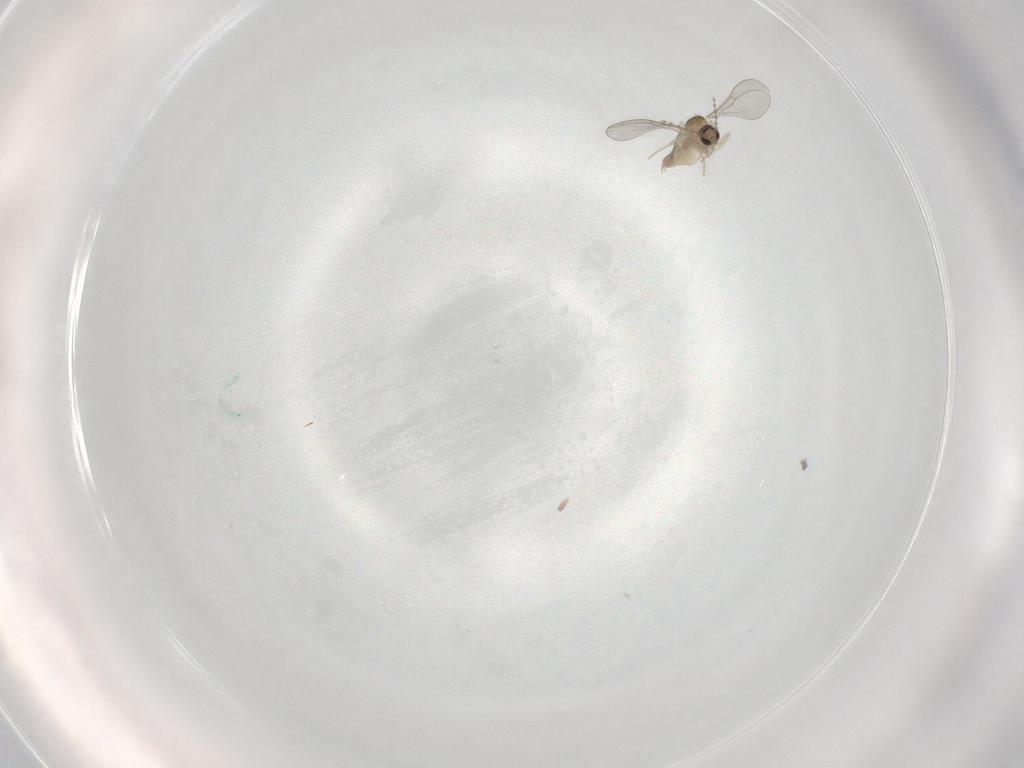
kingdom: Animalia
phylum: Arthropoda
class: Insecta
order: Diptera
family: Cecidomyiidae
